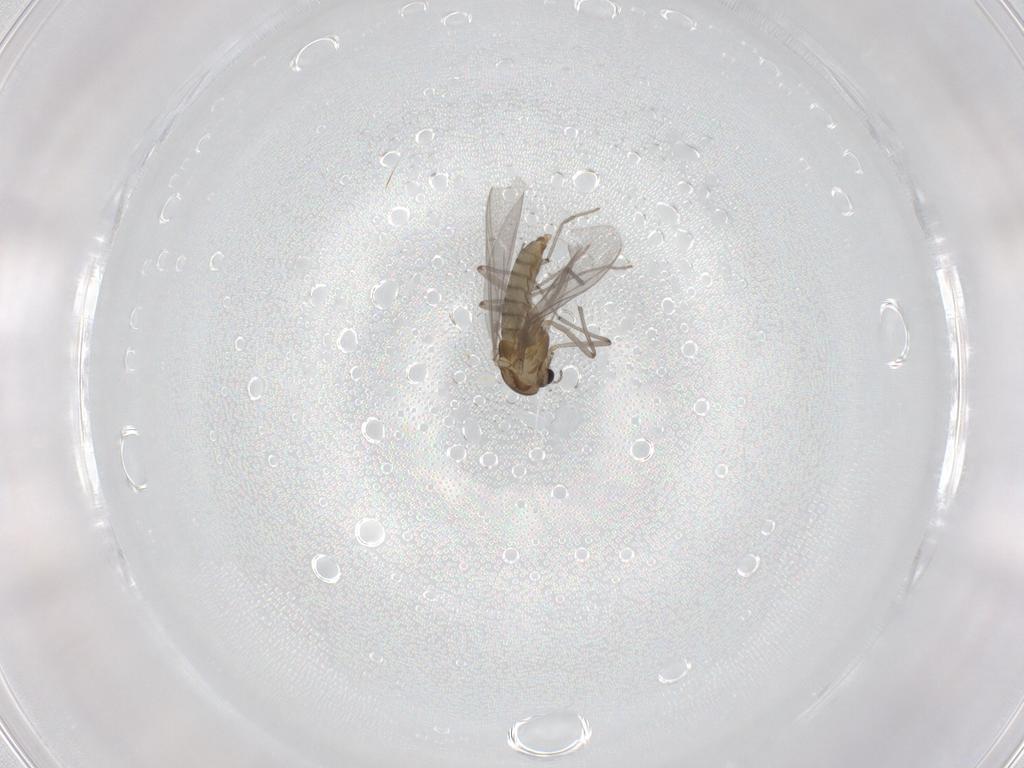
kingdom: Animalia
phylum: Arthropoda
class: Insecta
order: Diptera
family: Chironomidae
